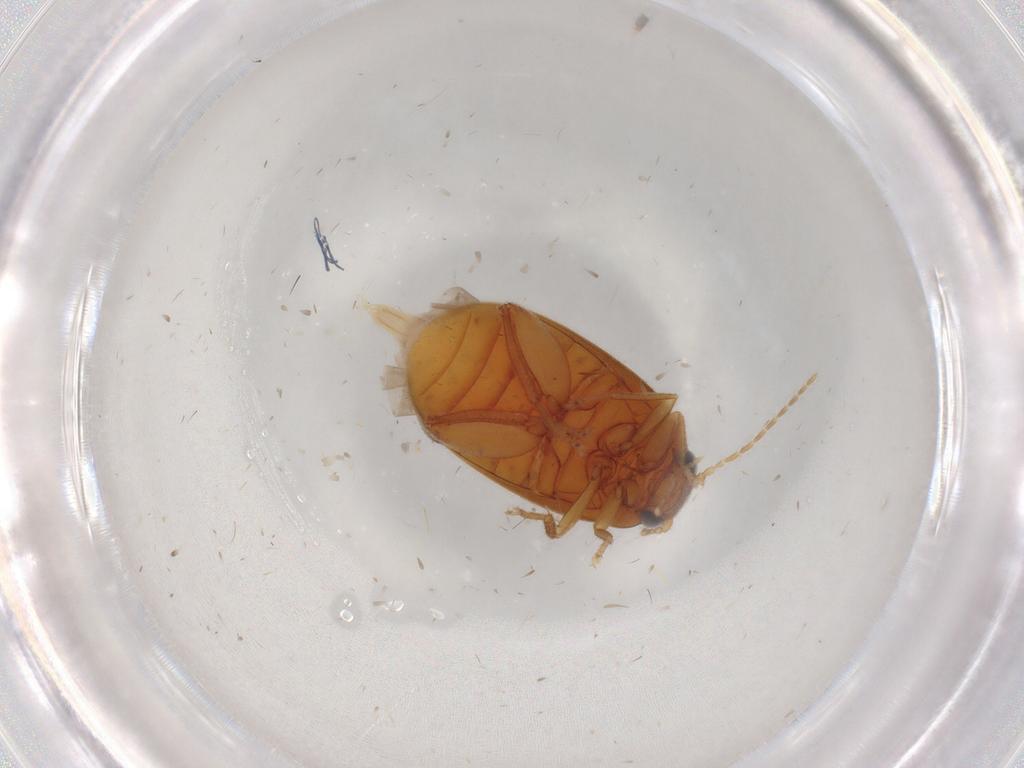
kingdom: Animalia
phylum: Arthropoda
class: Insecta
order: Coleoptera
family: Scirtidae
